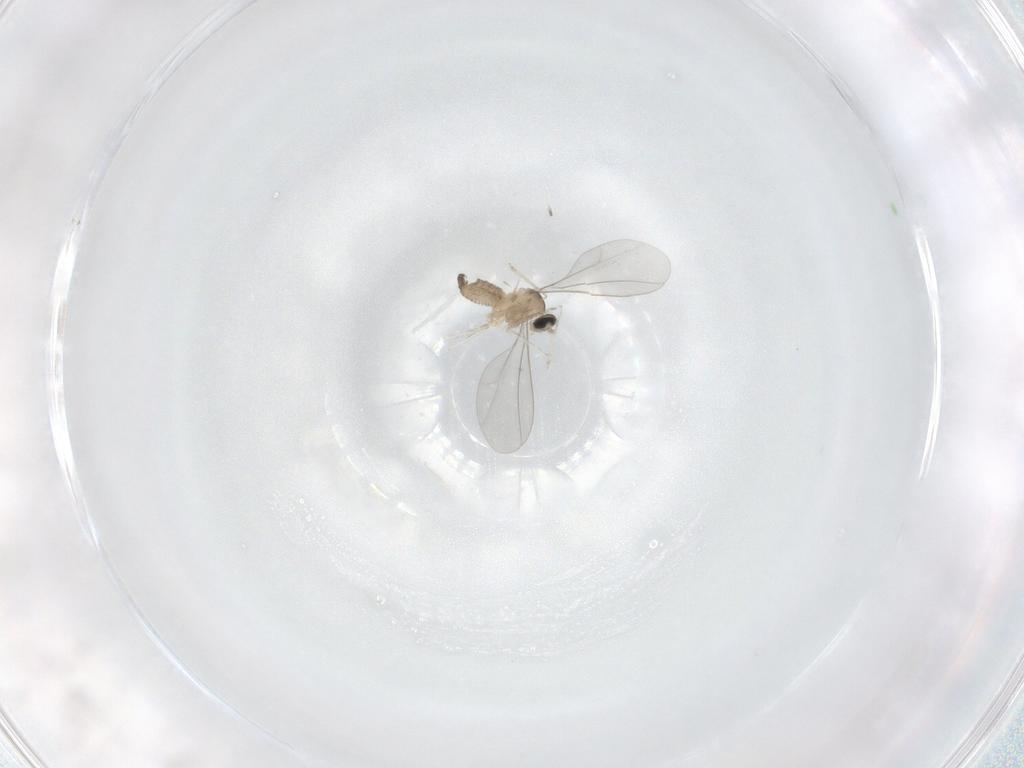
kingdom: Animalia
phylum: Arthropoda
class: Insecta
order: Diptera
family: Cecidomyiidae
